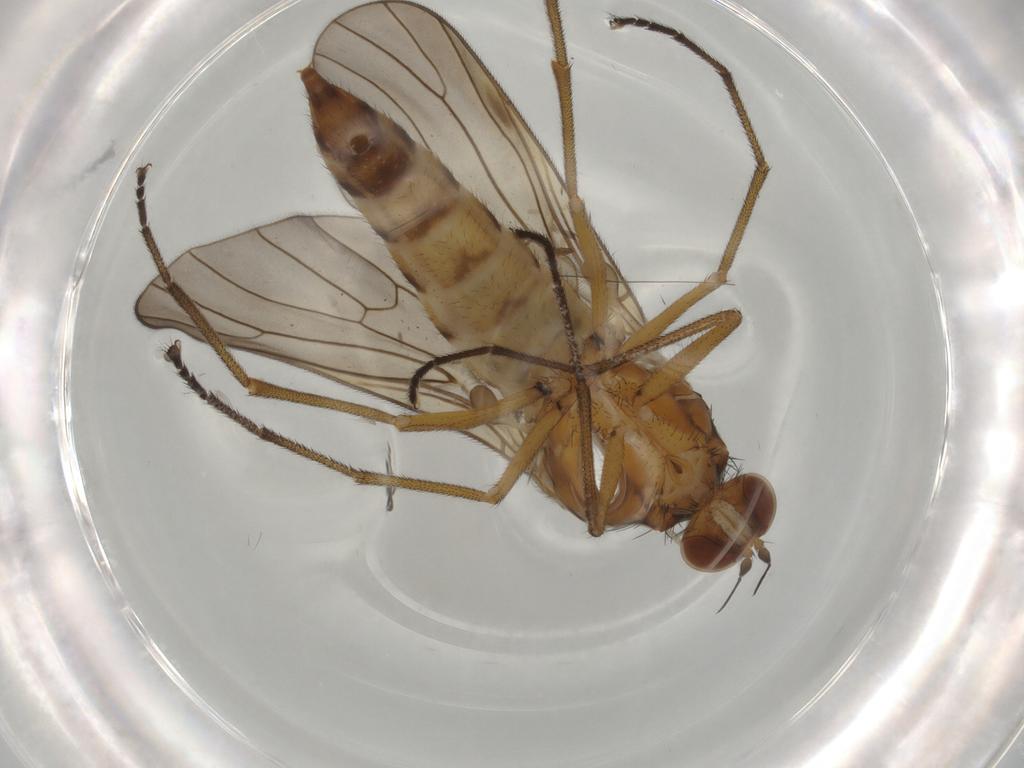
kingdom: Animalia
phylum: Arthropoda
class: Insecta
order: Diptera
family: Brachystomatidae
